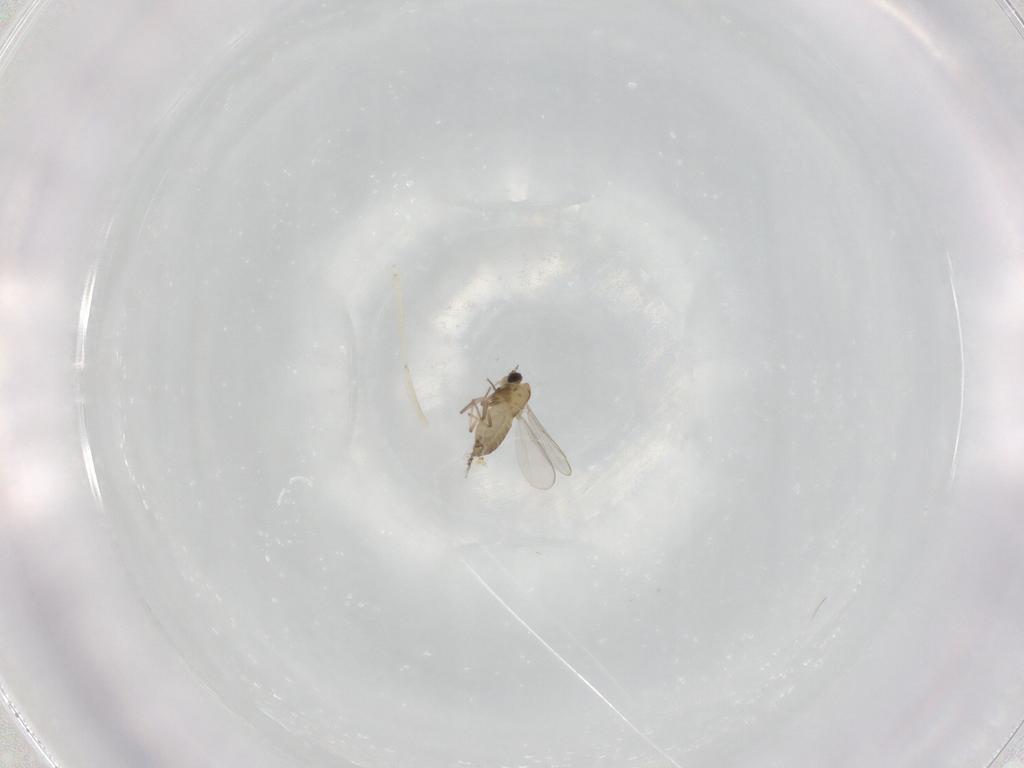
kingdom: Animalia
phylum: Arthropoda
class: Insecta
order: Diptera
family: Cecidomyiidae
